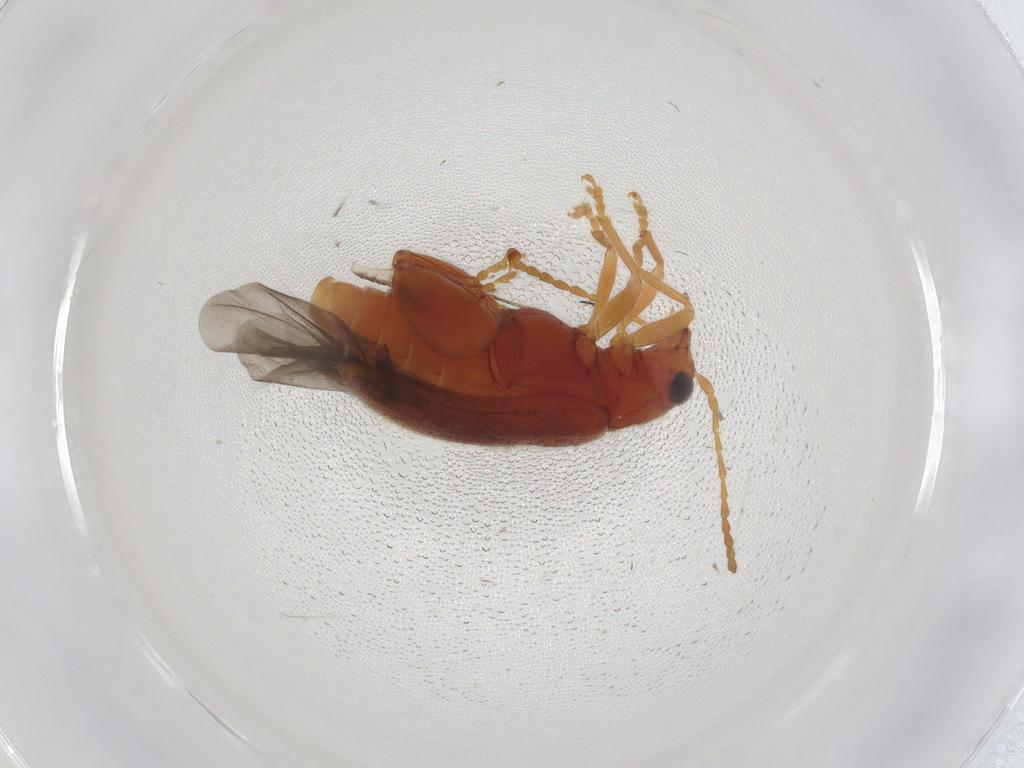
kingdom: Animalia
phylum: Arthropoda
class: Insecta
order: Coleoptera
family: Chrysomelidae
